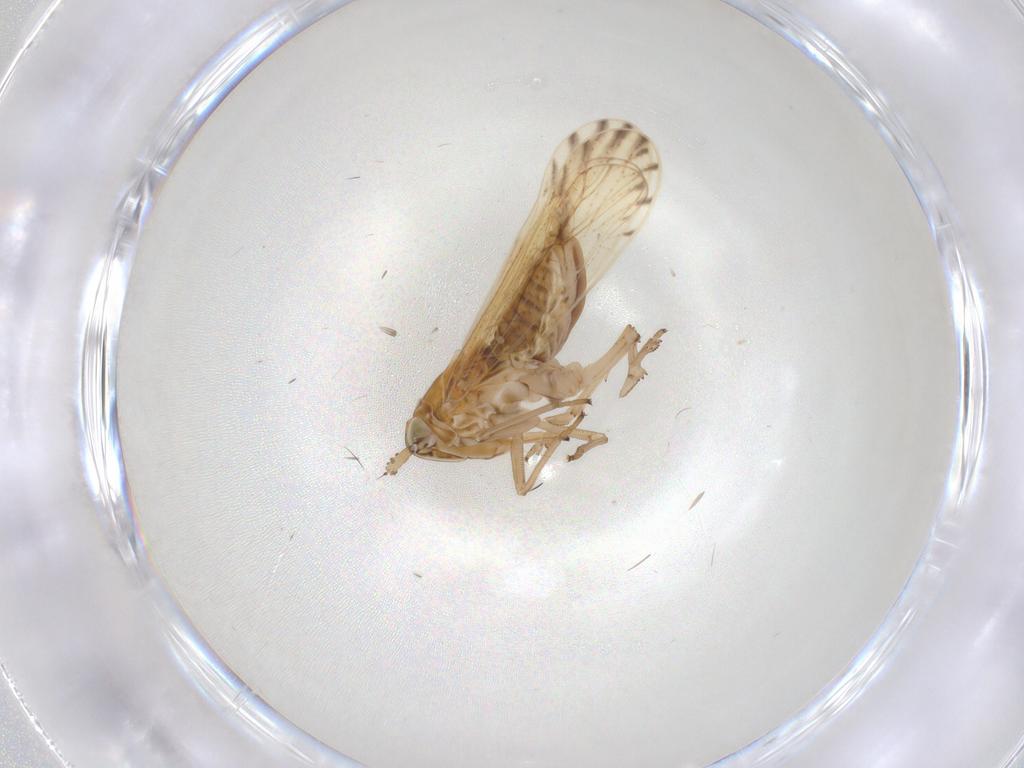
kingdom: Animalia
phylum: Arthropoda
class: Insecta
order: Hemiptera
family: Delphacidae
